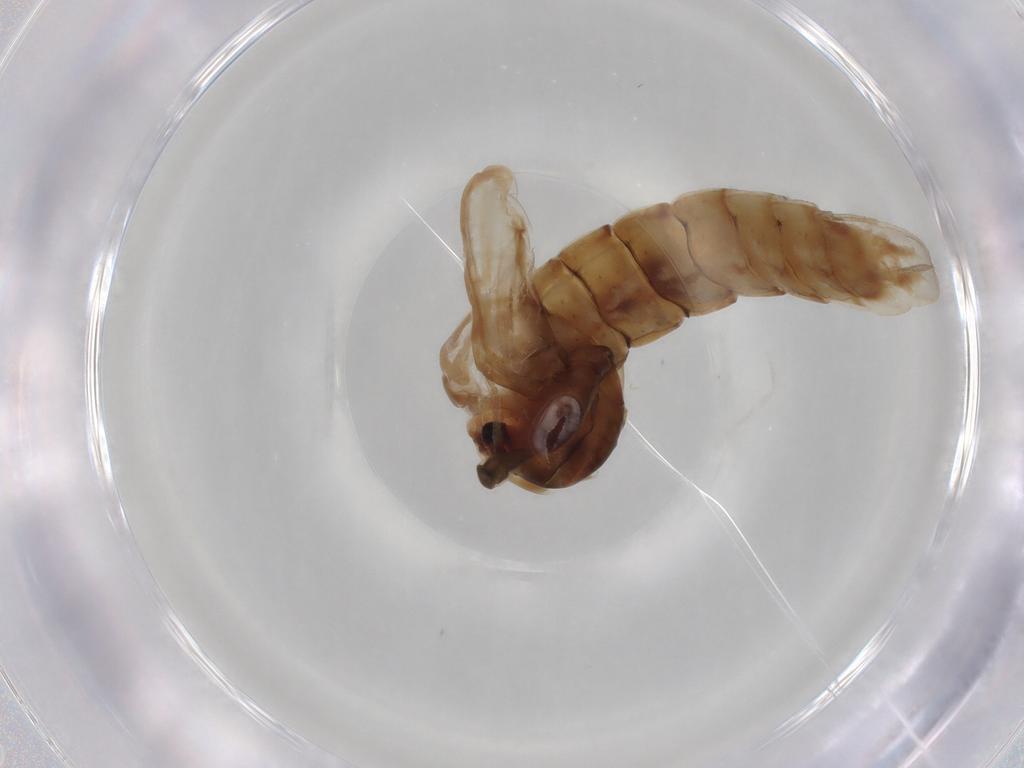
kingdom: Animalia
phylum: Arthropoda
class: Insecta
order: Diptera
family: Chironomidae
